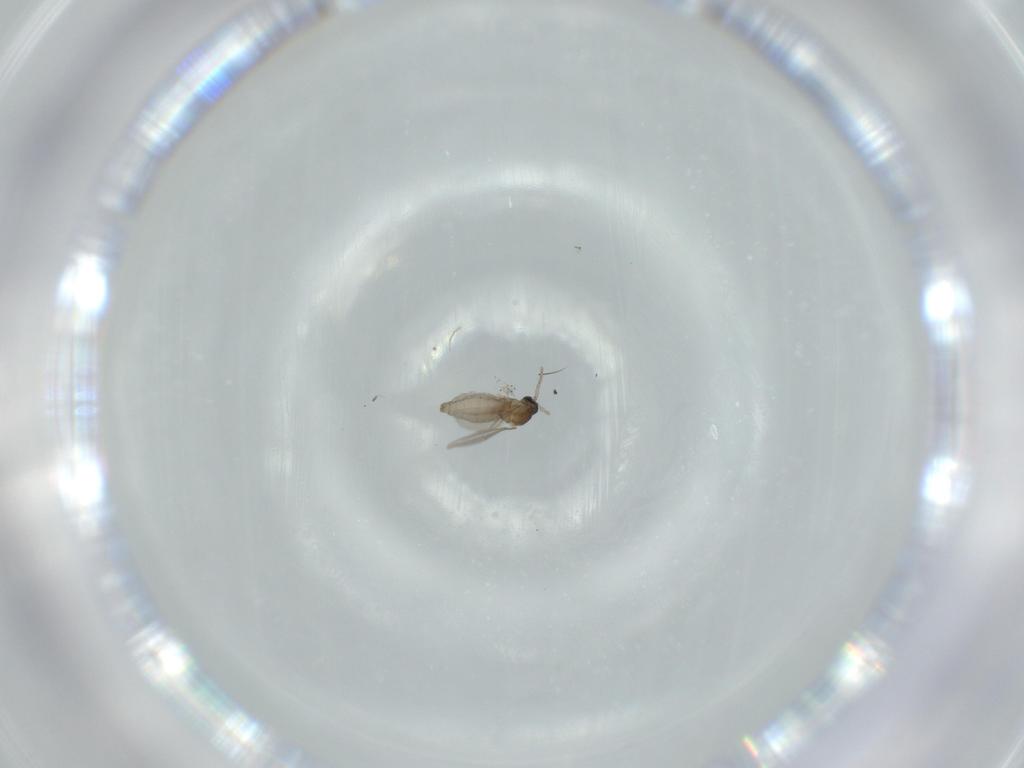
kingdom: Animalia
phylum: Arthropoda
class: Insecta
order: Diptera
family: Cecidomyiidae
